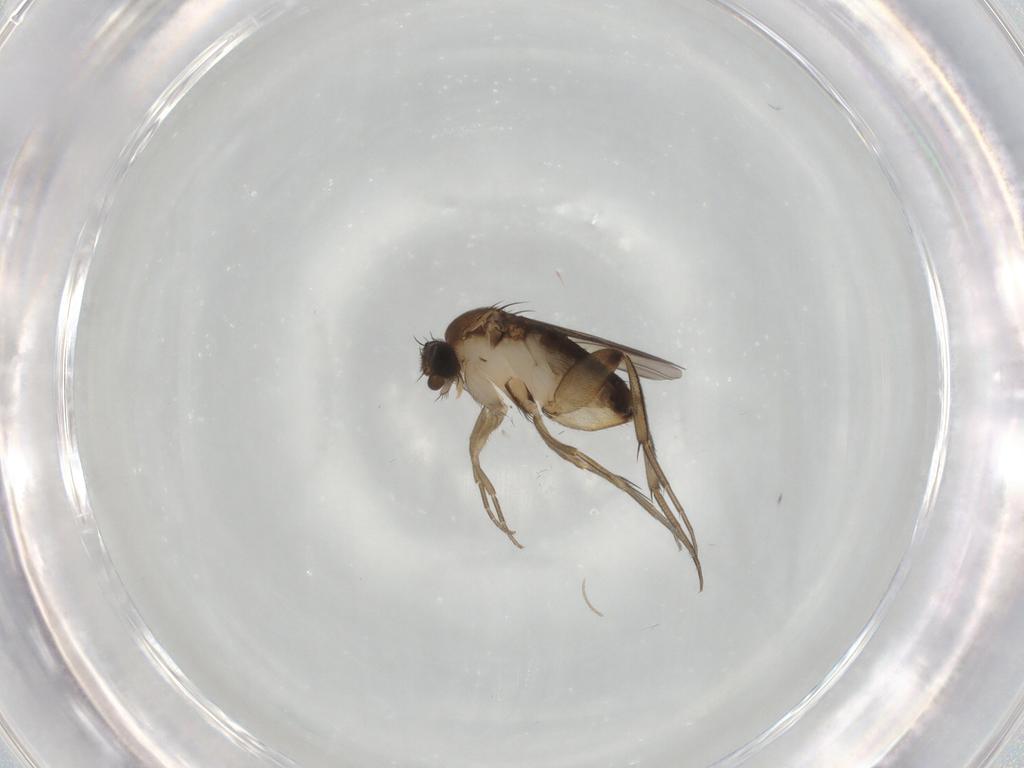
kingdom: Animalia
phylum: Arthropoda
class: Insecta
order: Diptera
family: Phoridae
